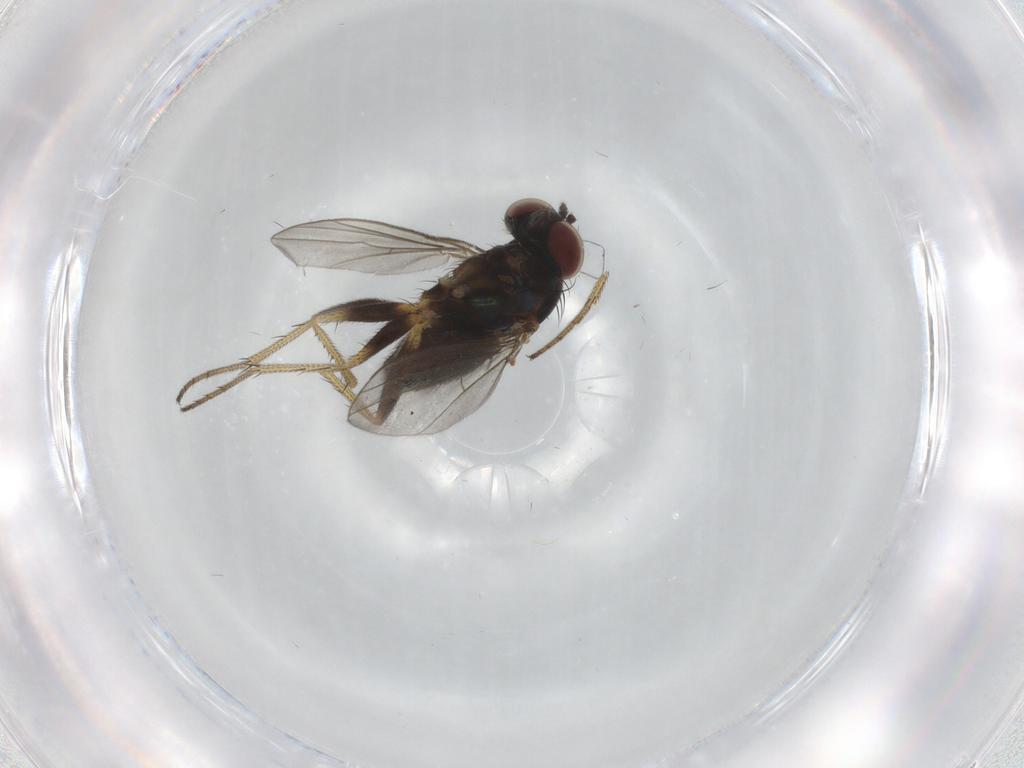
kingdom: Animalia
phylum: Arthropoda
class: Insecta
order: Diptera
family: Dolichopodidae
